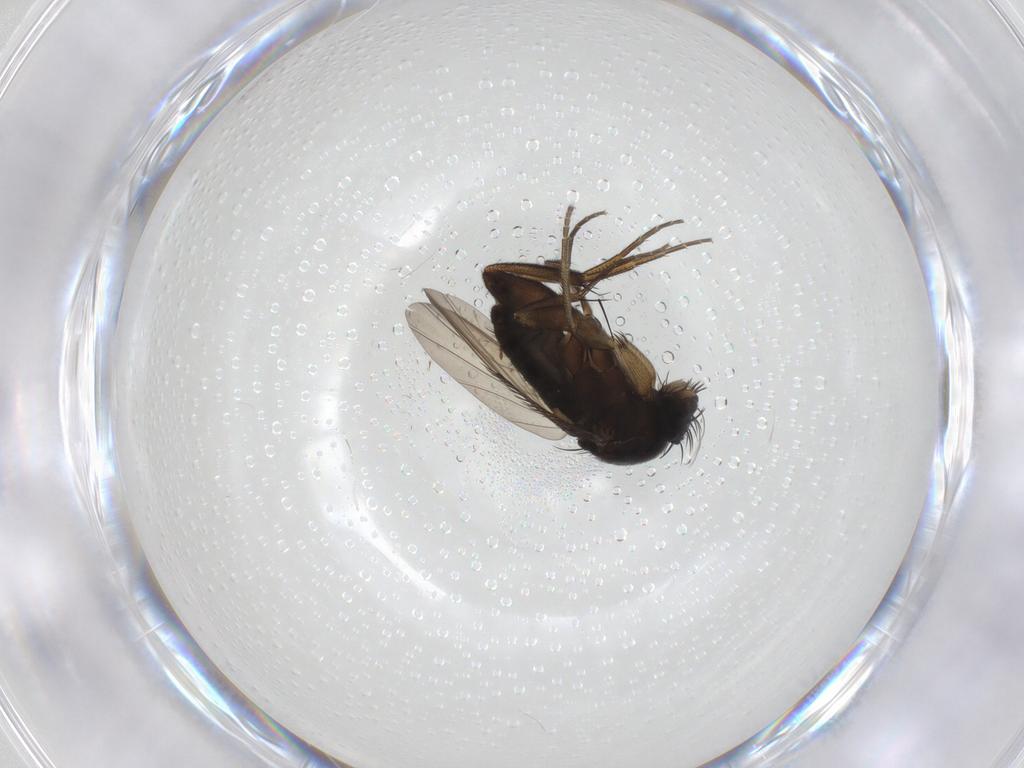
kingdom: Animalia
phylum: Arthropoda
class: Insecta
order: Diptera
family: Phoridae
